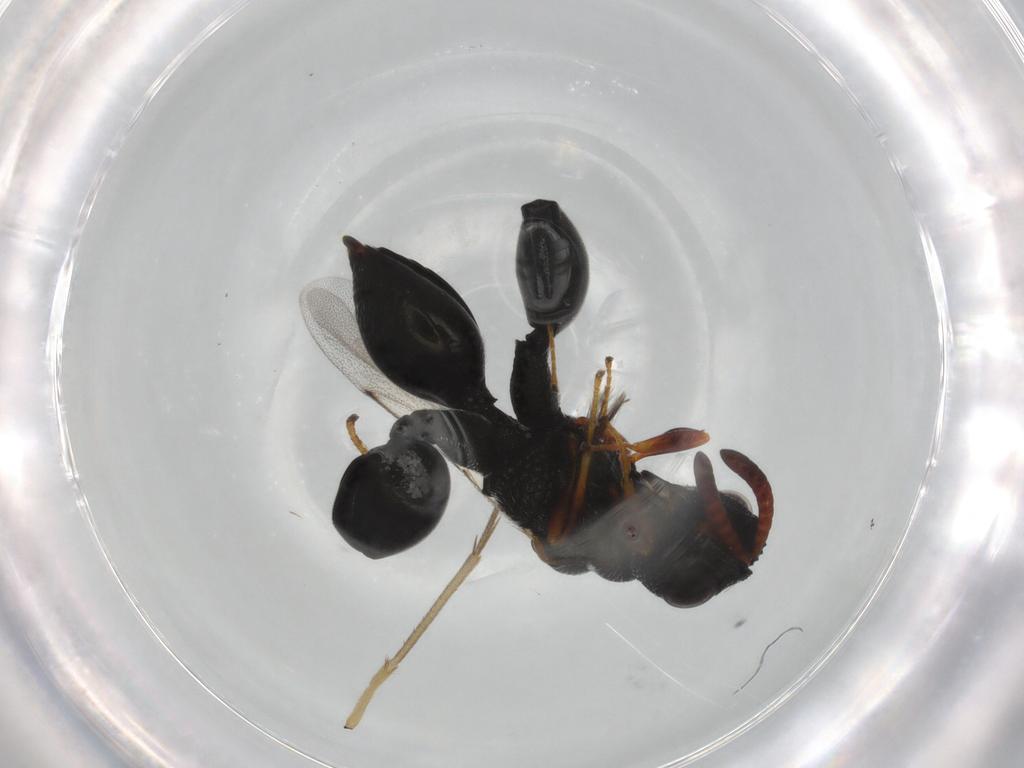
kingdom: Animalia
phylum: Arthropoda
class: Insecta
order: Hymenoptera
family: Chalcididae
